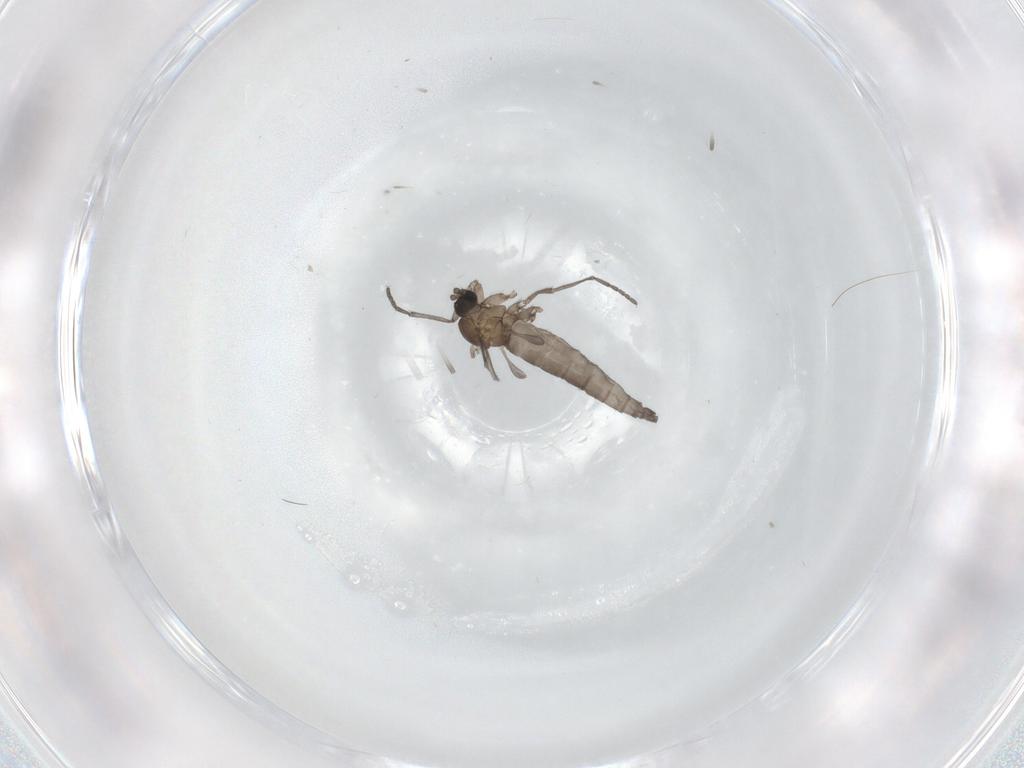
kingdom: Animalia
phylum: Arthropoda
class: Insecta
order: Diptera
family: Sciaridae
